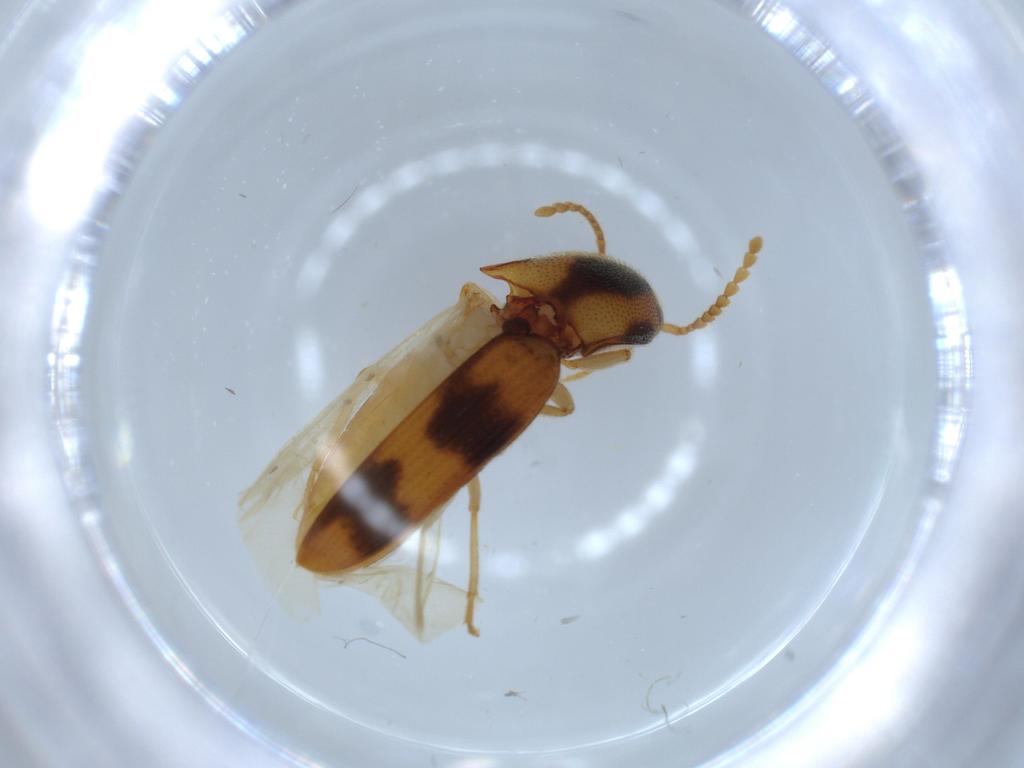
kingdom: Animalia
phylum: Arthropoda
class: Insecta
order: Coleoptera
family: Elateridae
